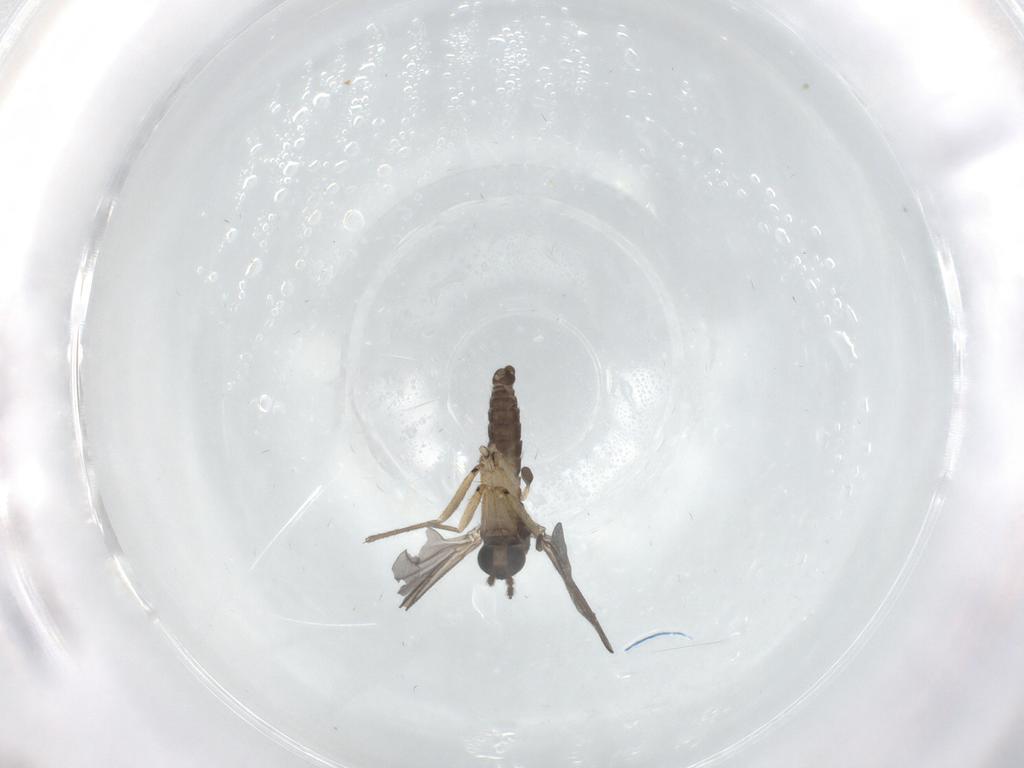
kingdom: Animalia
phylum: Arthropoda
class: Insecta
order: Diptera
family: Sciaridae
